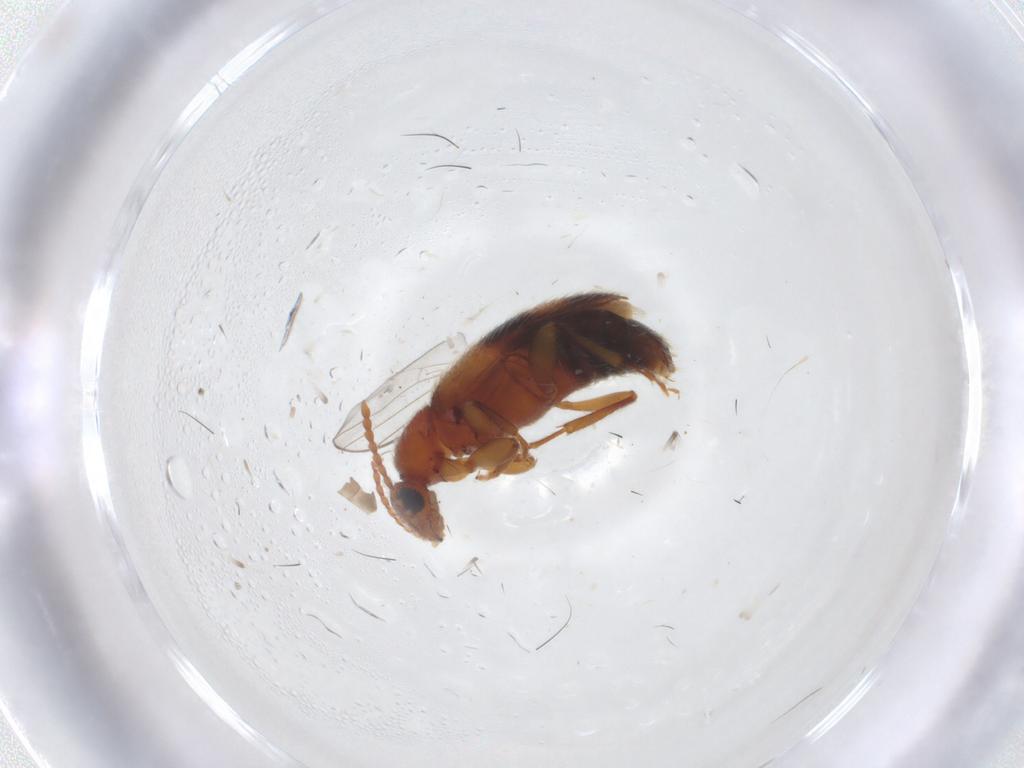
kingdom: Animalia
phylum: Arthropoda
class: Insecta
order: Coleoptera
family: Anthicidae
